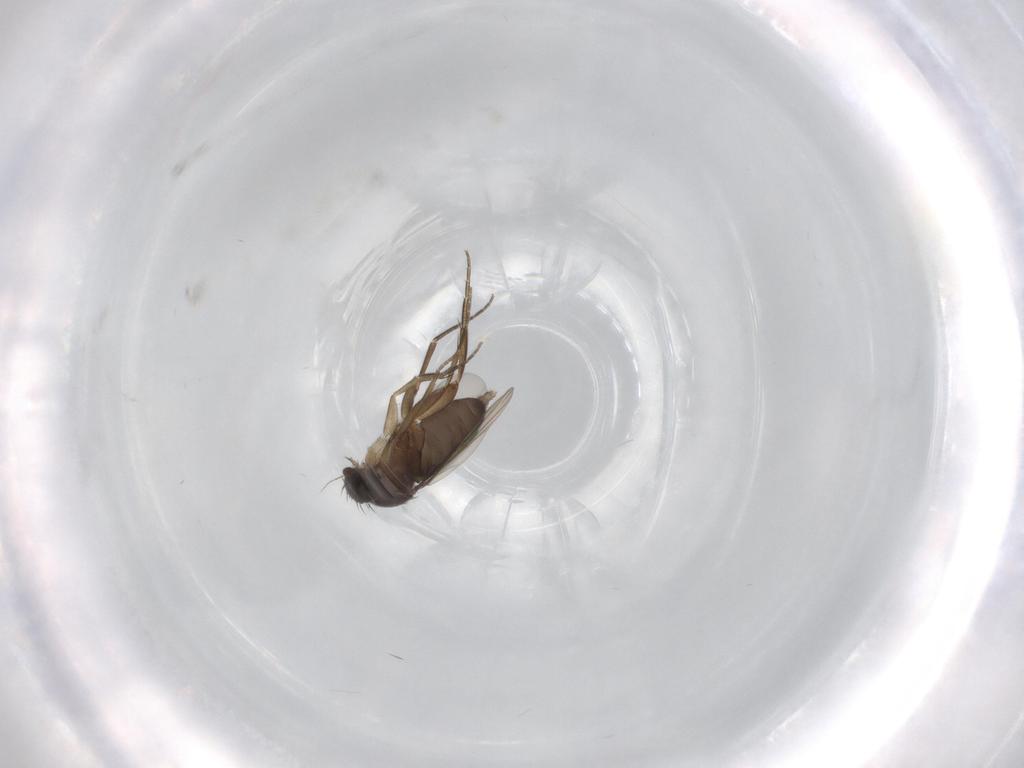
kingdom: Animalia
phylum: Arthropoda
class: Insecta
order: Diptera
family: Phoridae
